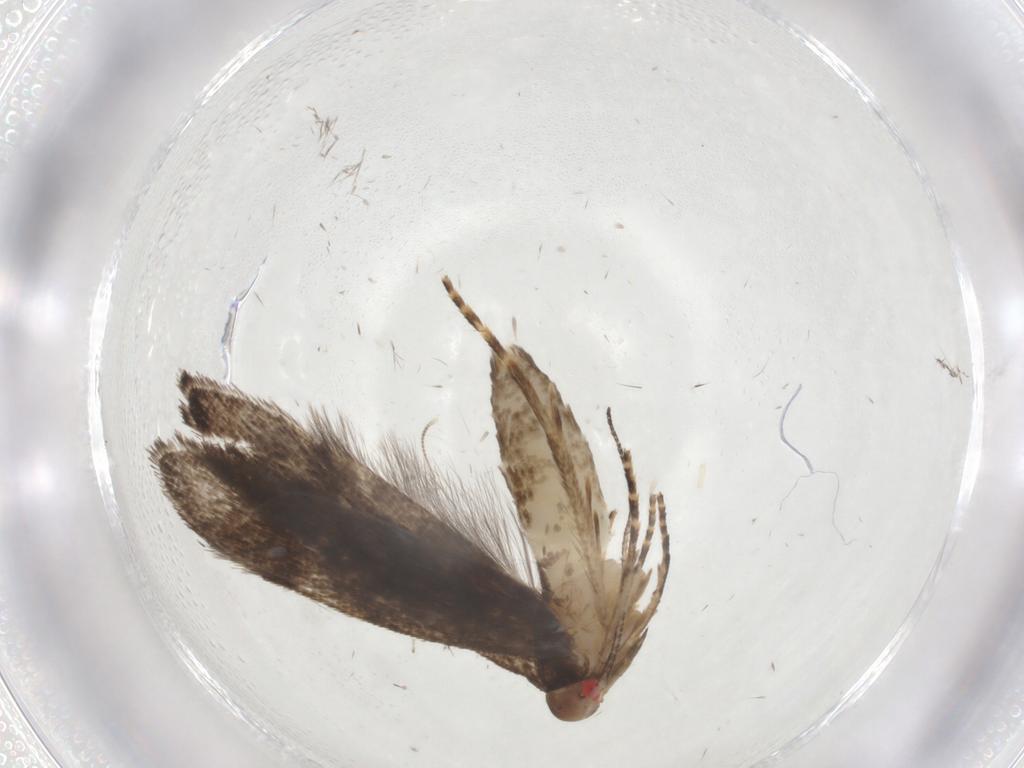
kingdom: Animalia
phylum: Arthropoda
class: Insecta
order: Lepidoptera
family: Gelechiidae
